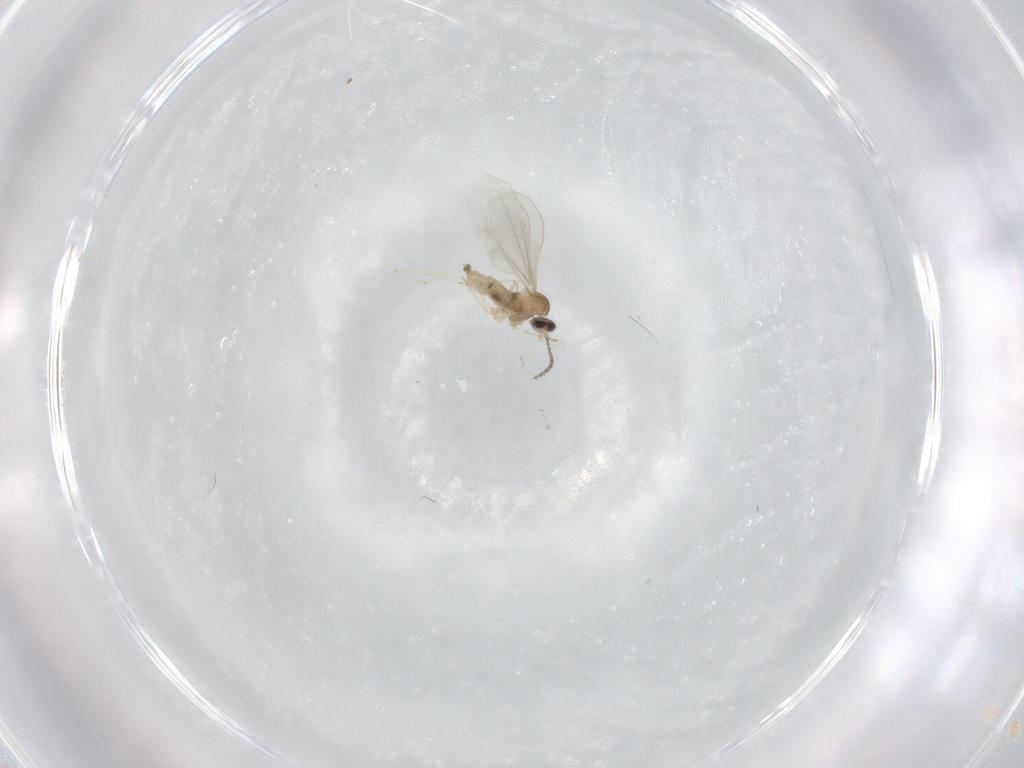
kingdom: Animalia
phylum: Arthropoda
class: Insecta
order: Diptera
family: Cecidomyiidae
